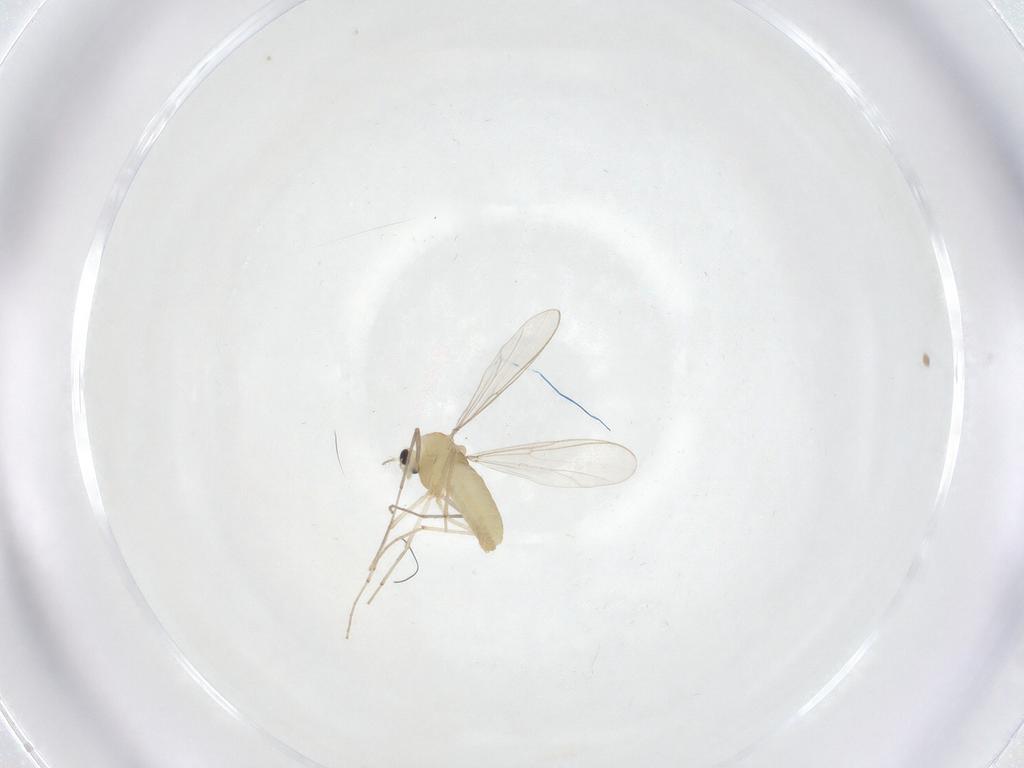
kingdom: Animalia
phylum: Arthropoda
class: Insecta
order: Diptera
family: Chironomidae
